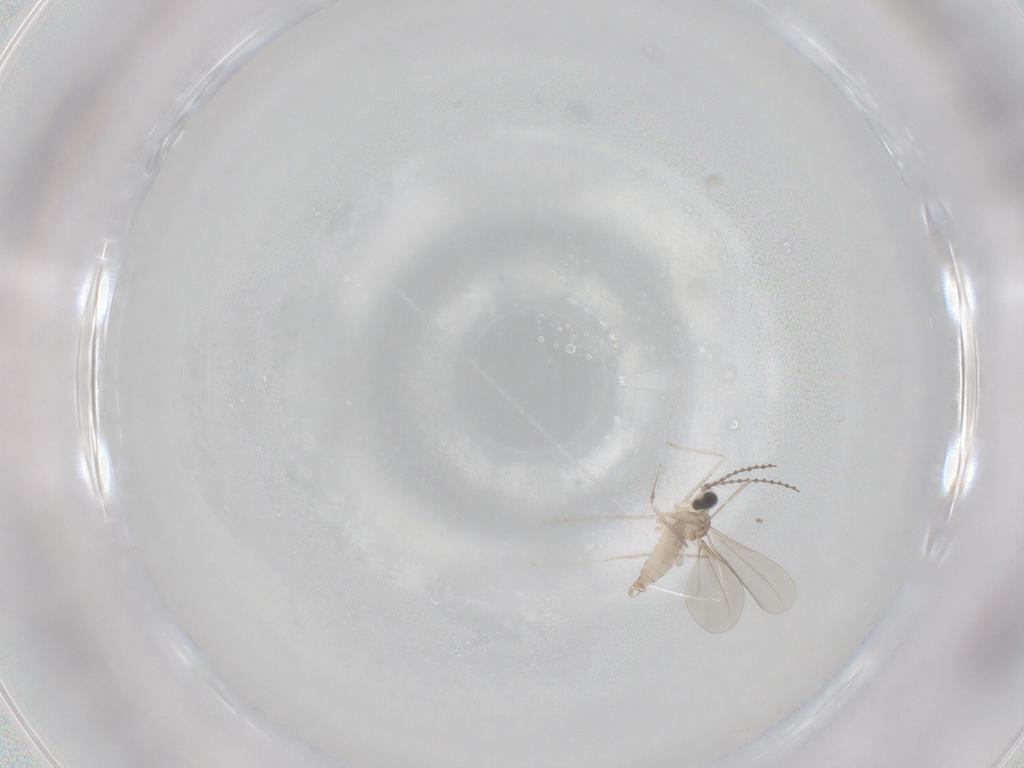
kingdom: Animalia
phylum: Arthropoda
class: Insecta
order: Diptera
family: Cecidomyiidae
